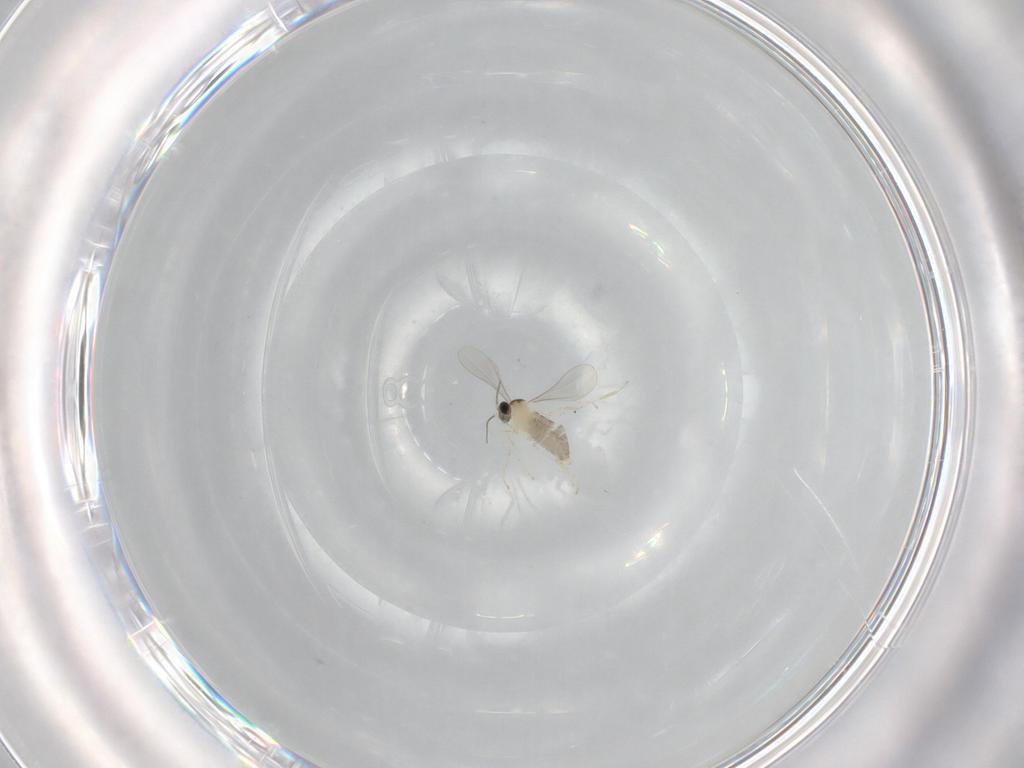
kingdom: Animalia
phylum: Arthropoda
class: Insecta
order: Diptera
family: Cecidomyiidae
